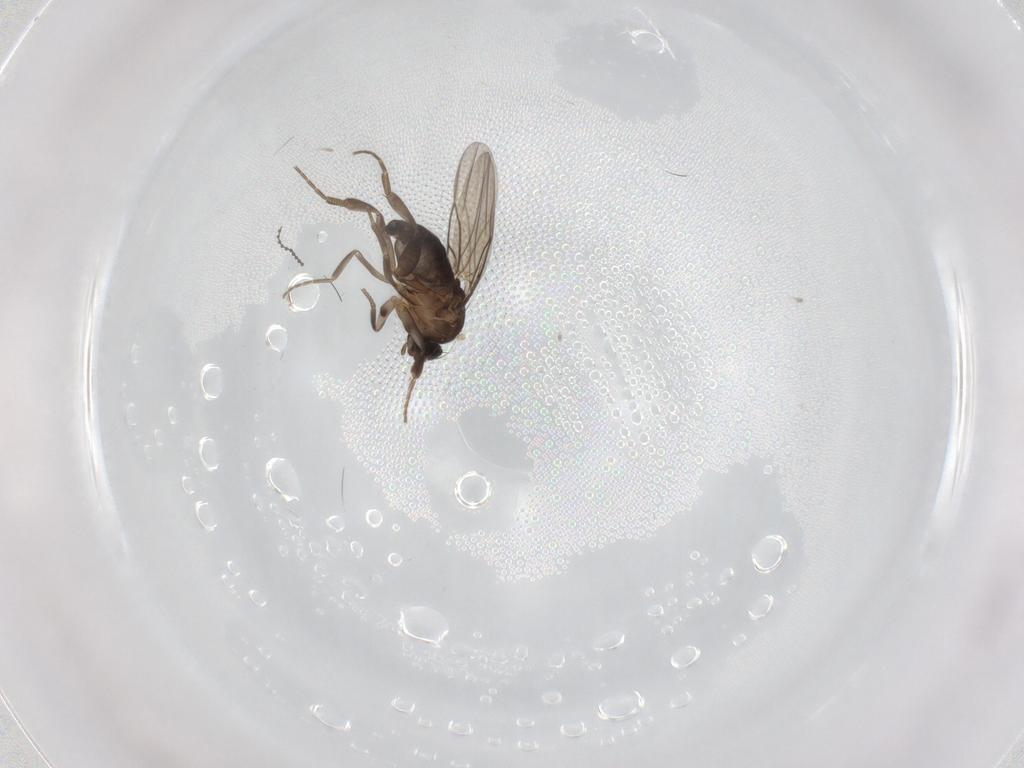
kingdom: Animalia
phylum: Arthropoda
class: Insecta
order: Diptera
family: Phoridae
